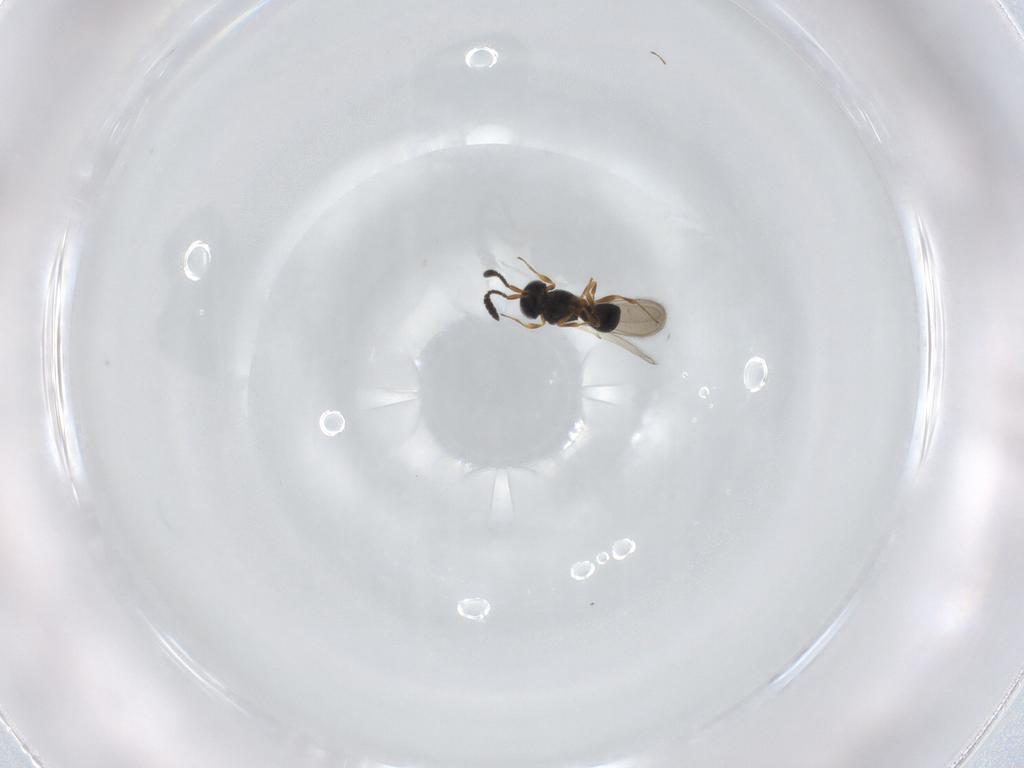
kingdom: Animalia
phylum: Arthropoda
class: Insecta
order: Hymenoptera
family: Scelionidae
